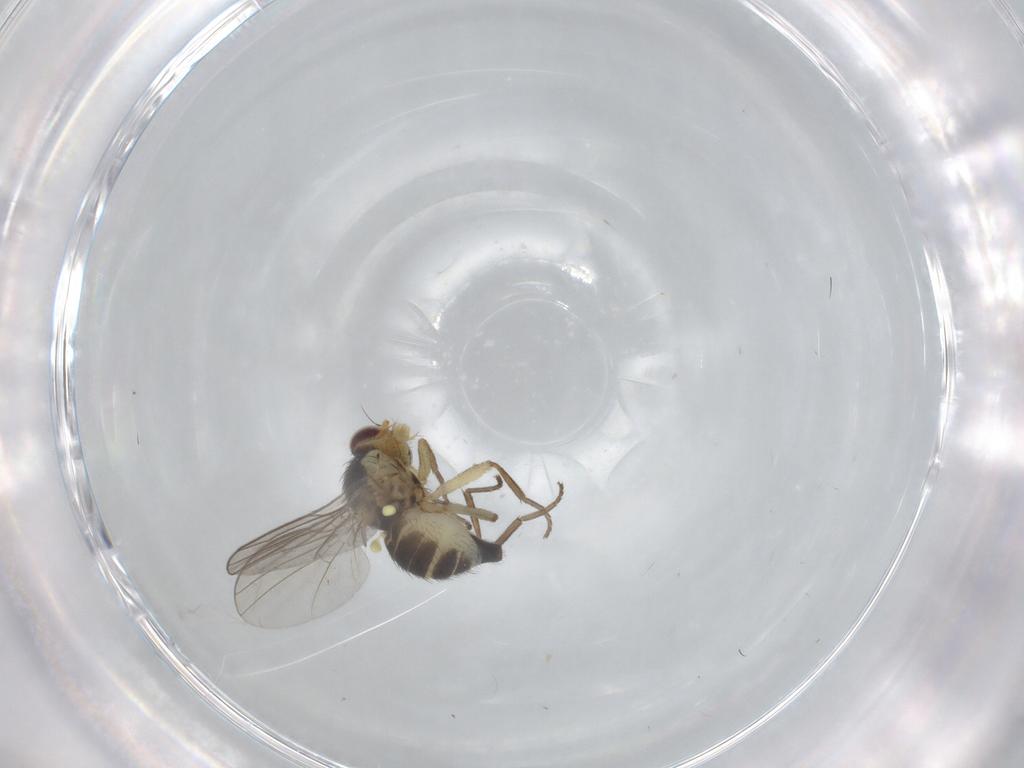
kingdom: Animalia
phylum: Arthropoda
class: Insecta
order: Diptera
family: Agromyzidae
